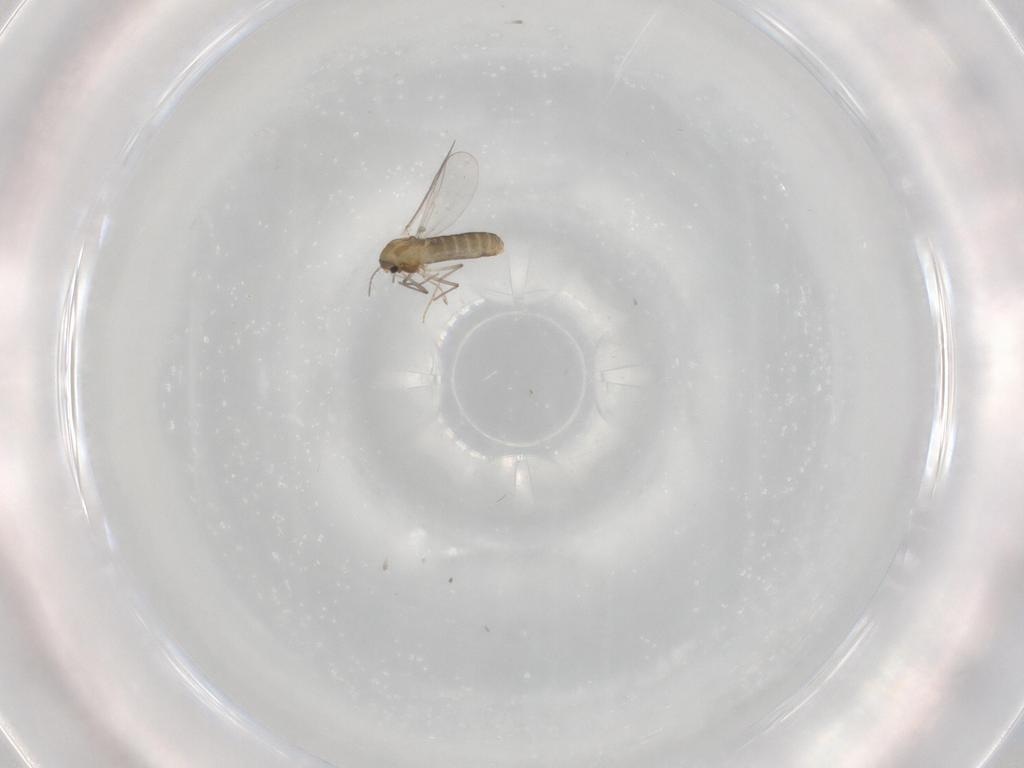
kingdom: Animalia
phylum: Arthropoda
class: Insecta
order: Diptera
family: Chironomidae
